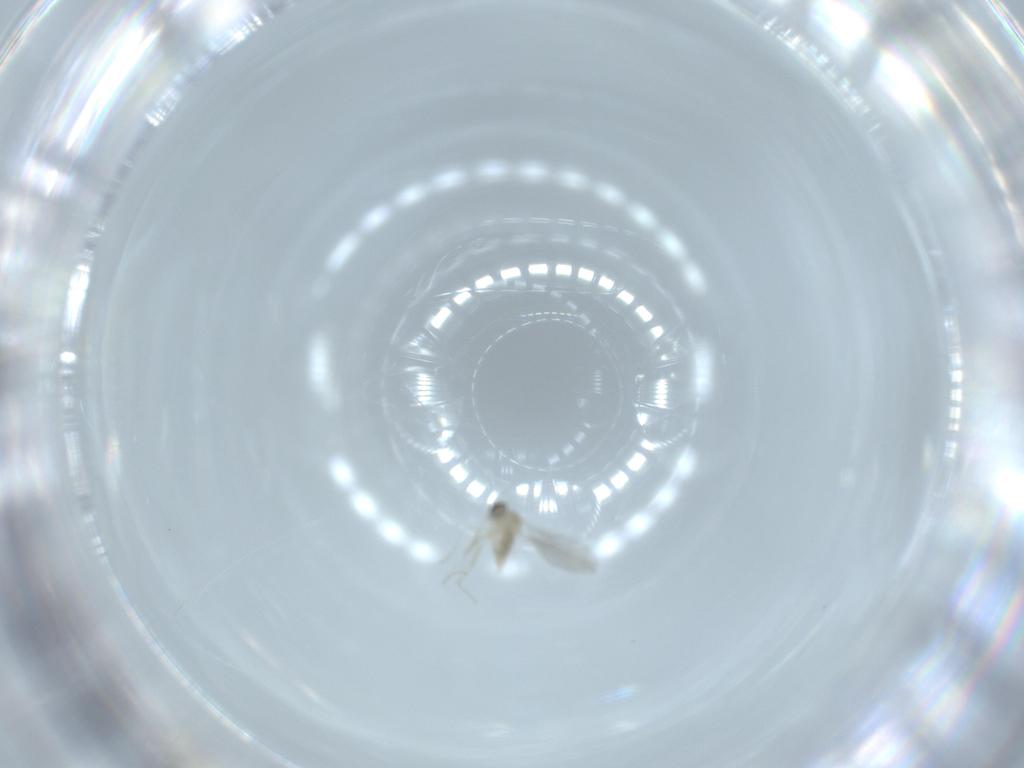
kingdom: Animalia
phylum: Arthropoda
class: Insecta
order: Diptera
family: Cecidomyiidae
